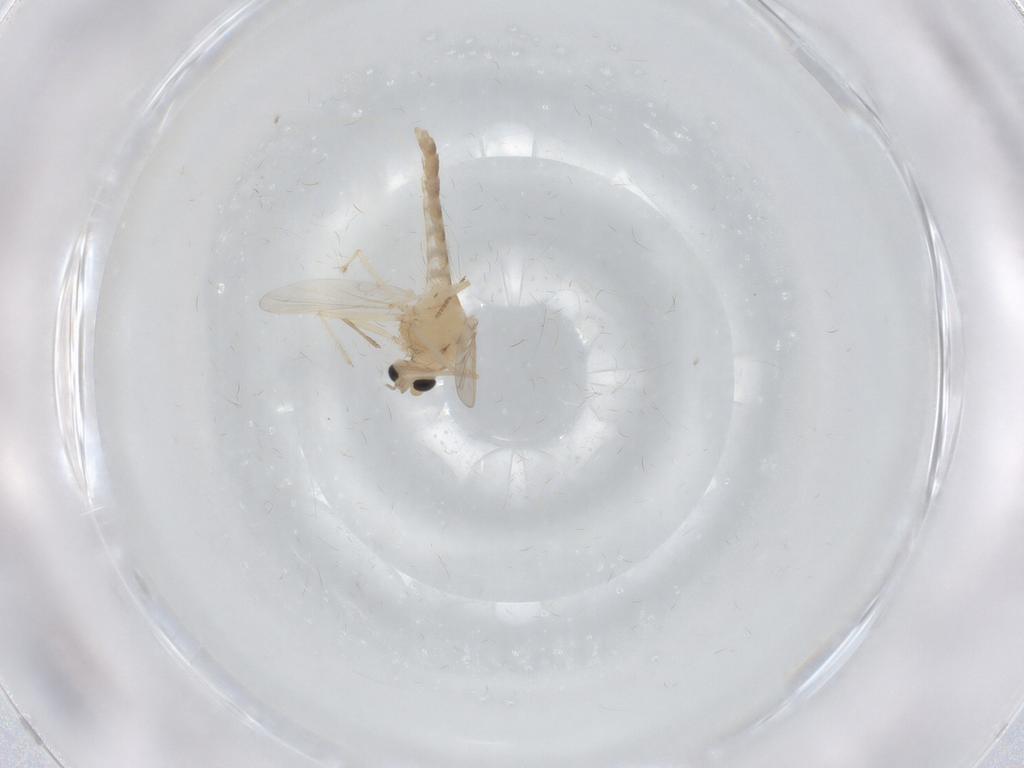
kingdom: Animalia
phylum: Arthropoda
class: Insecta
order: Diptera
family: Chironomidae
